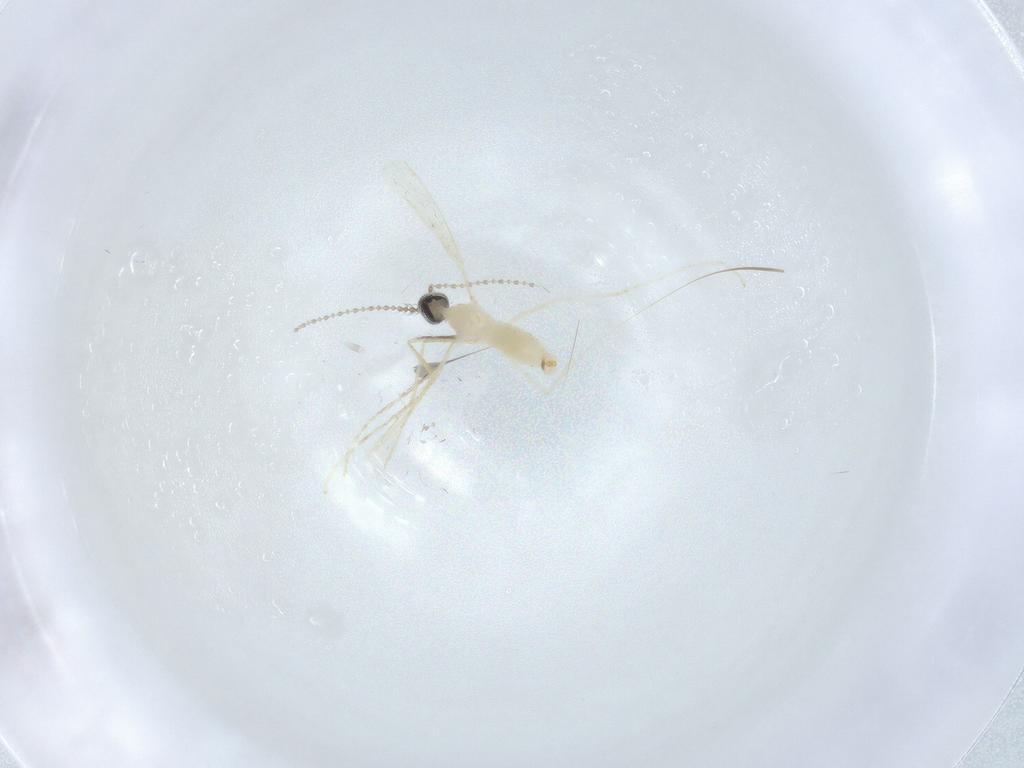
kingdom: Animalia
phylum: Arthropoda
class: Insecta
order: Diptera
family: Cecidomyiidae
